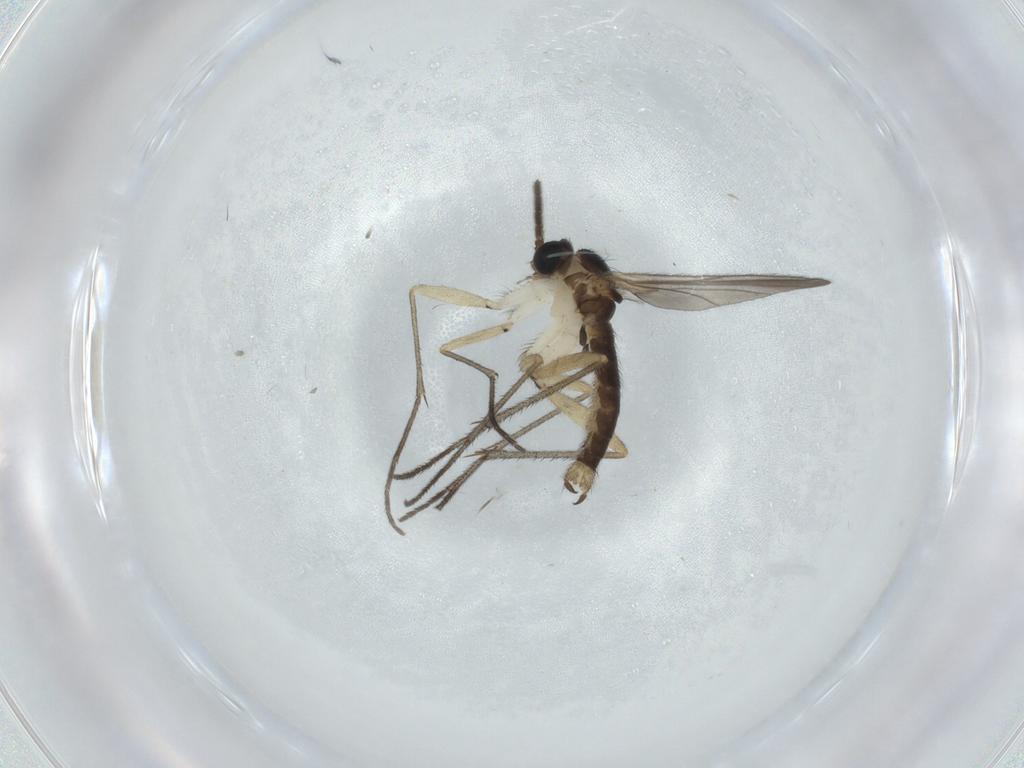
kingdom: Animalia
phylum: Arthropoda
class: Insecta
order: Diptera
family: Sciaridae
